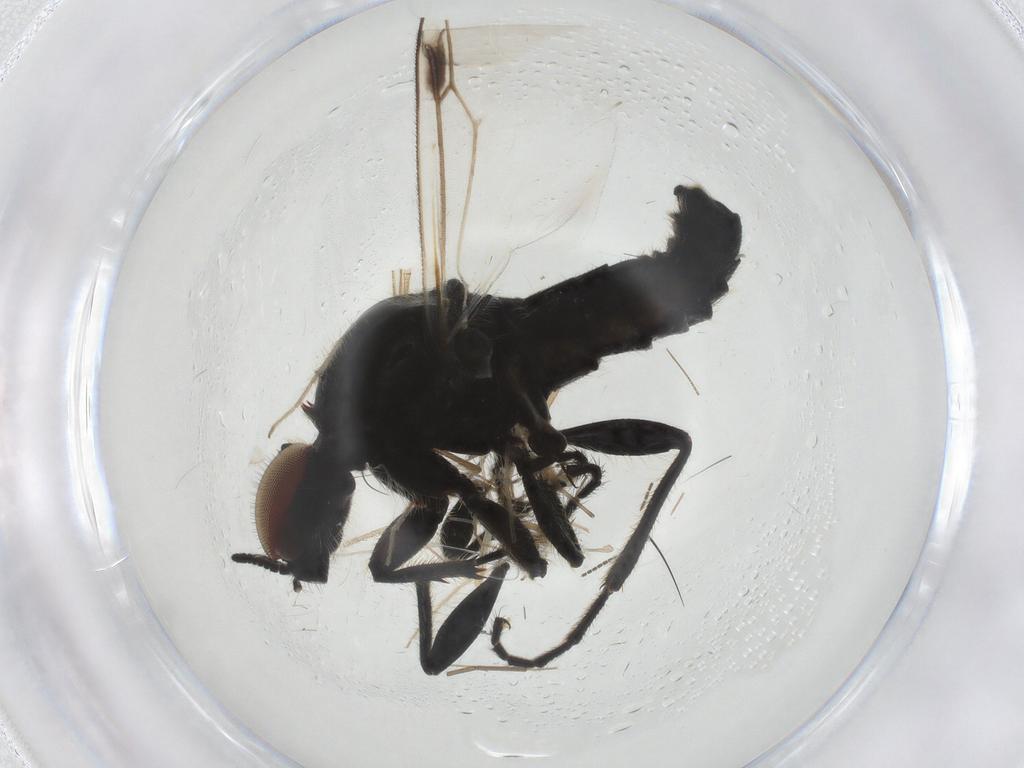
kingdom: Animalia
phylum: Arthropoda
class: Insecta
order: Diptera
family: Bibionidae
